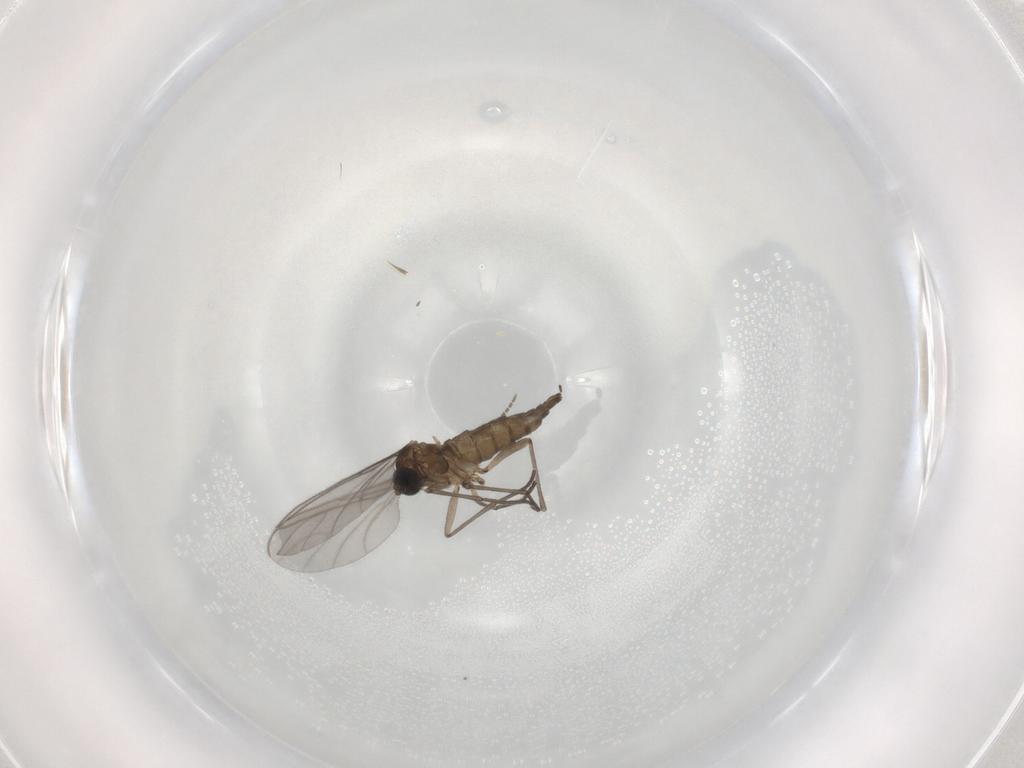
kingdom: Animalia
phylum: Arthropoda
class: Insecta
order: Diptera
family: Sciaridae
